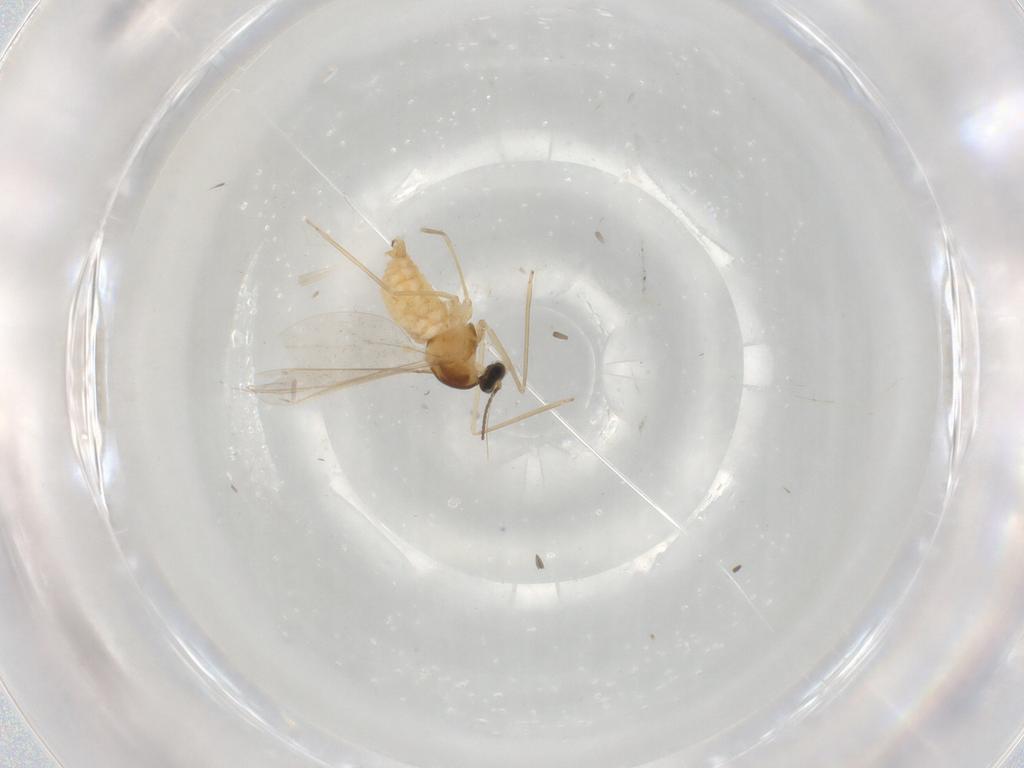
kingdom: Animalia
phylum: Arthropoda
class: Insecta
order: Diptera
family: Cecidomyiidae
